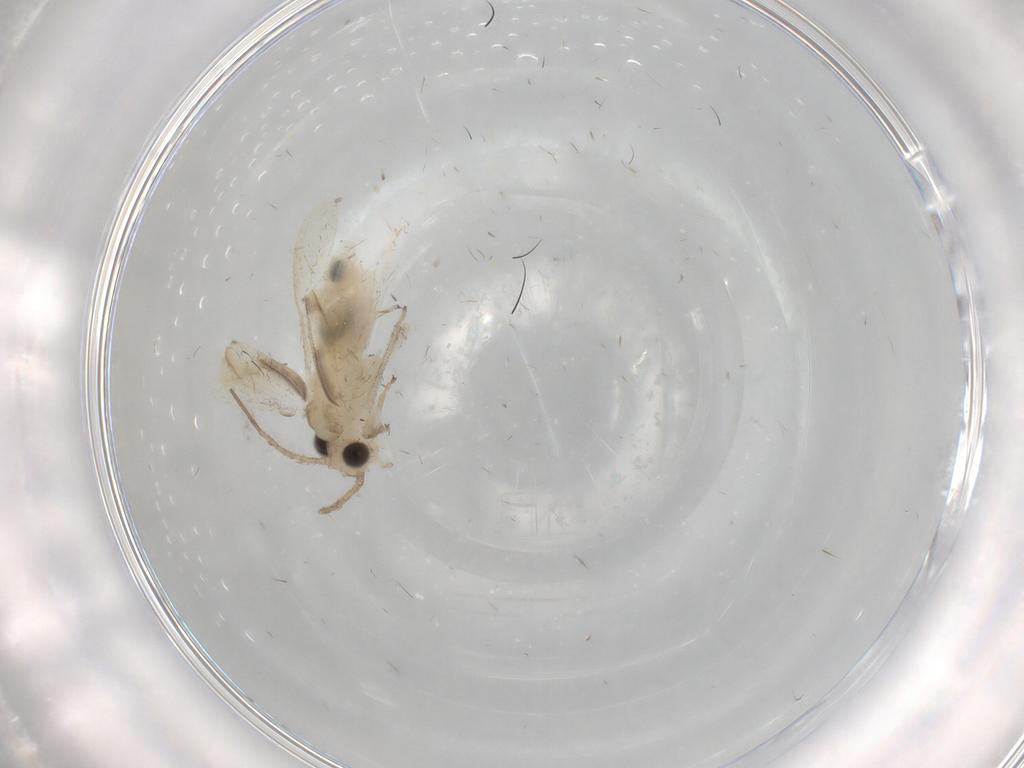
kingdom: Animalia
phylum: Arthropoda
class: Insecta
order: Psocodea
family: Caeciliusidae
